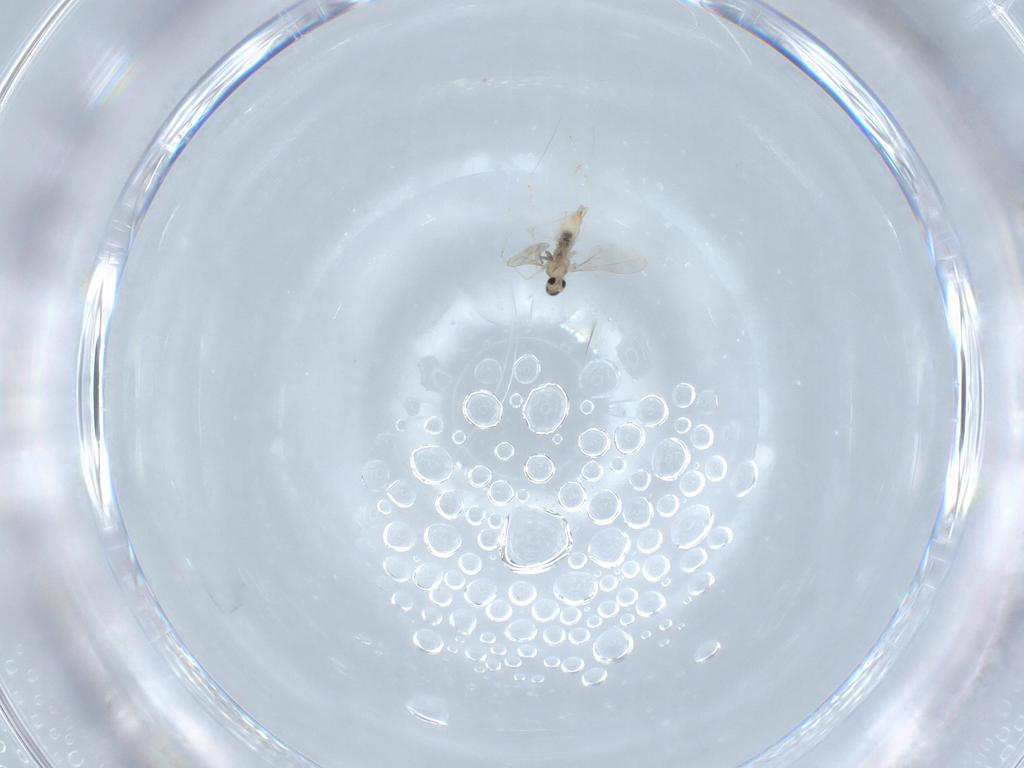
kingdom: Animalia
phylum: Arthropoda
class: Insecta
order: Diptera
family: Cecidomyiidae
